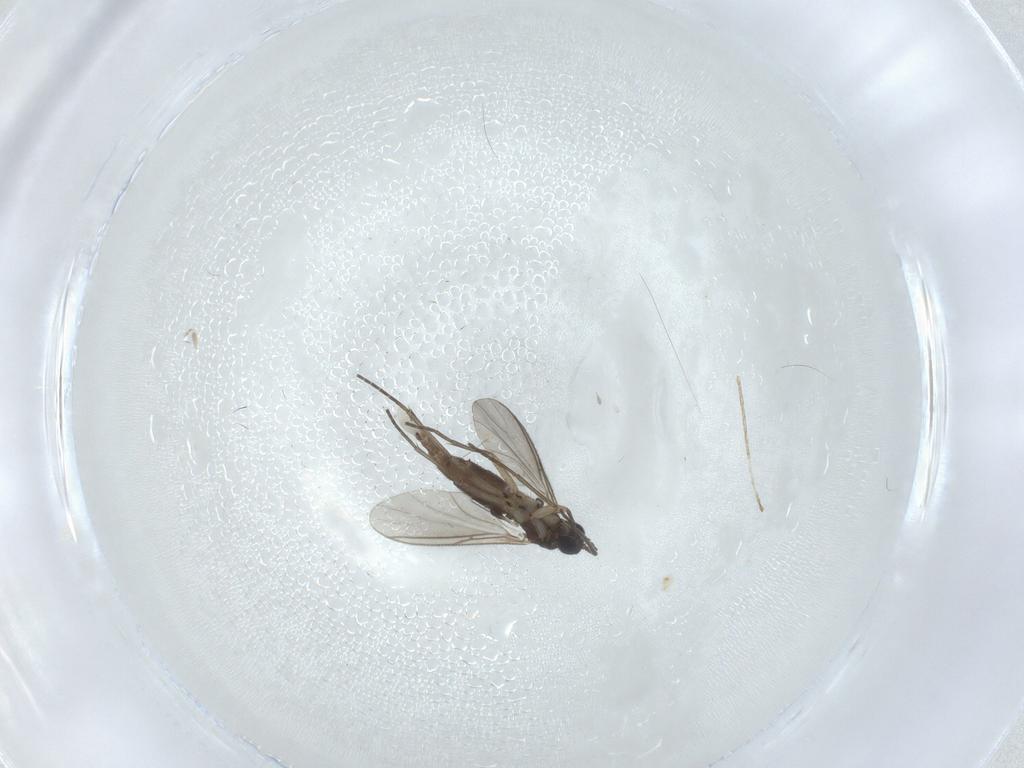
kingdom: Animalia
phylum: Arthropoda
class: Insecta
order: Diptera
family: Sciaridae
